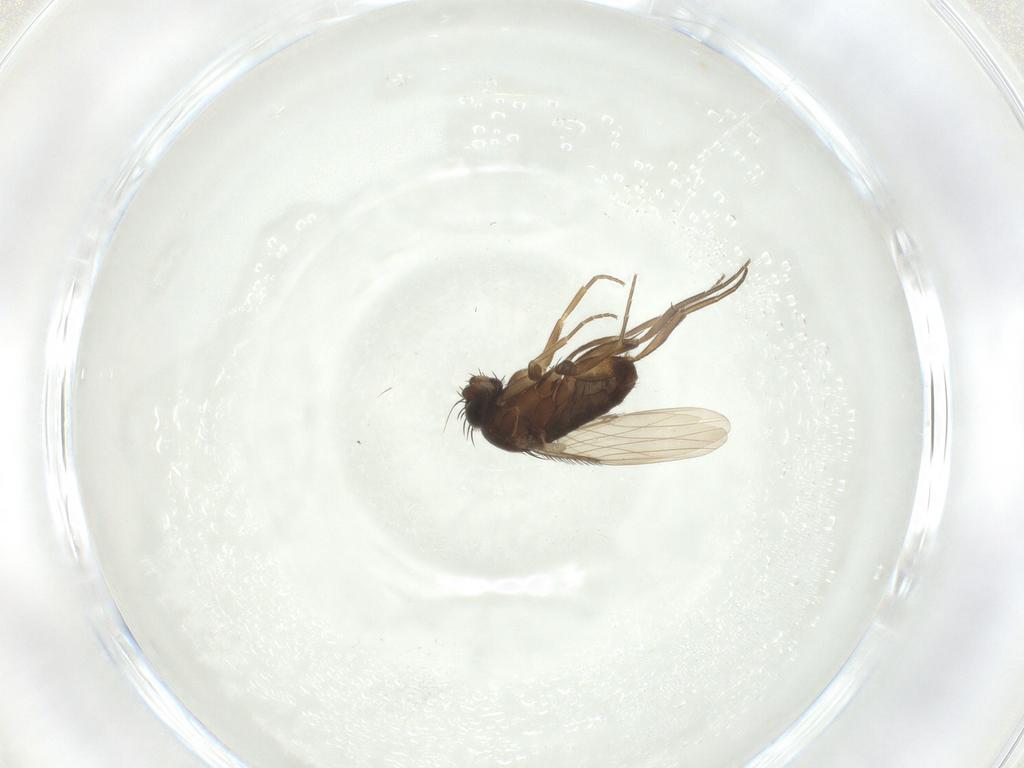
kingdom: Animalia
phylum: Arthropoda
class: Insecta
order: Diptera
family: Phoridae
